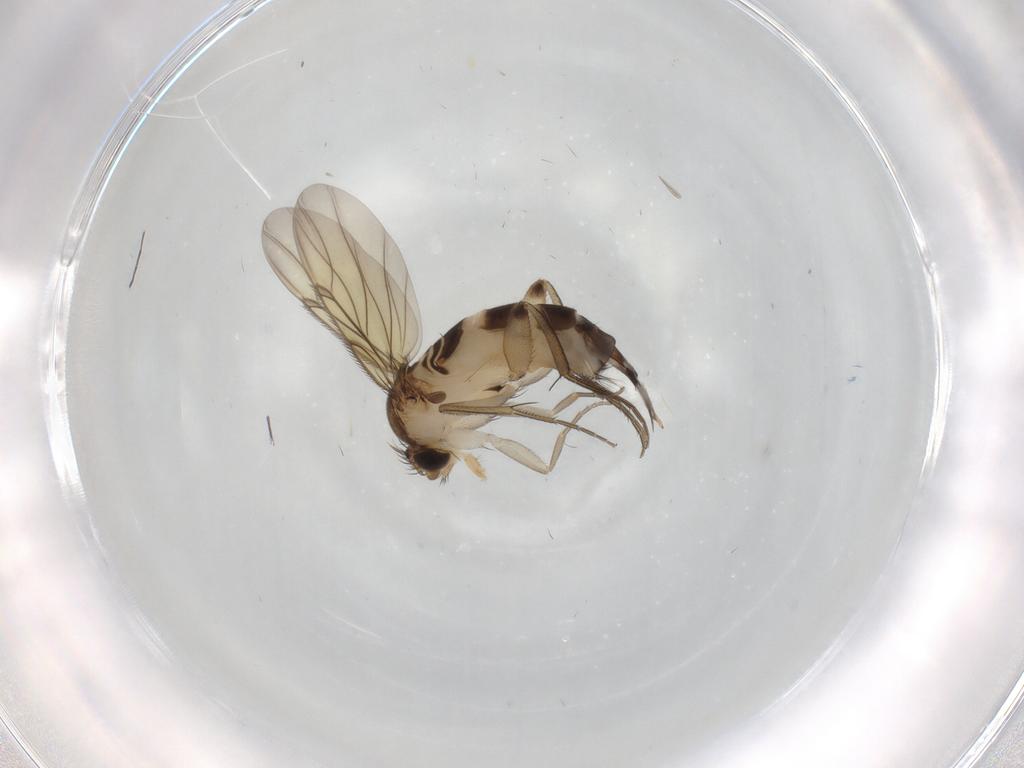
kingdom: Animalia
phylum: Arthropoda
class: Insecta
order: Diptera
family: Phoridae
